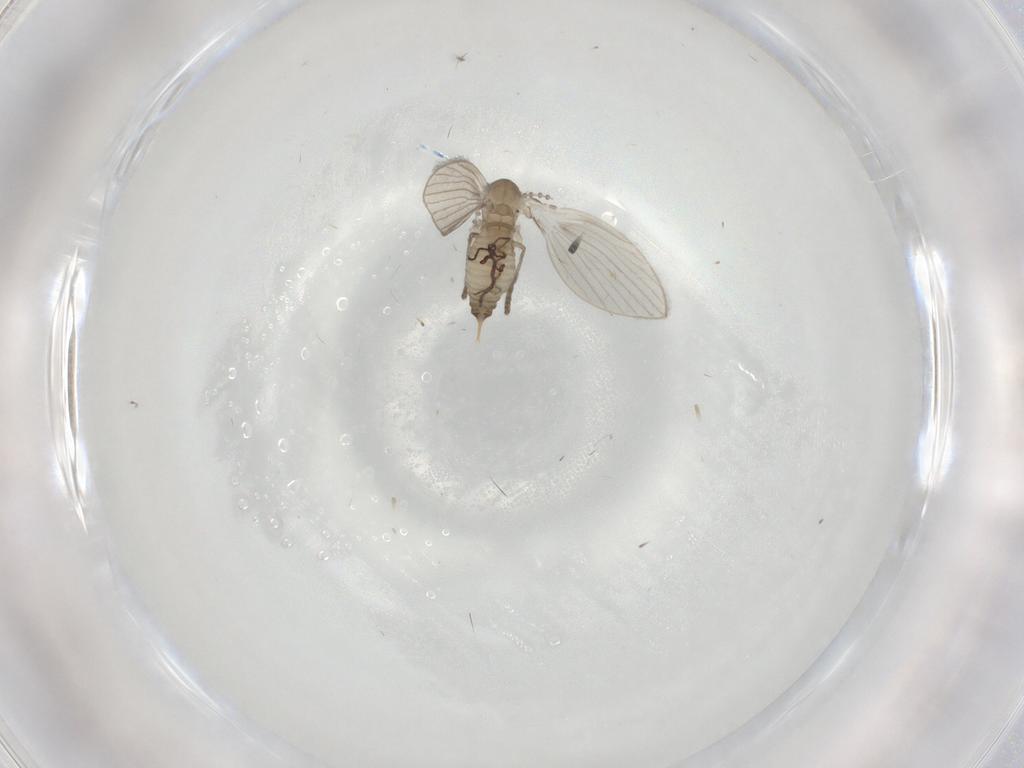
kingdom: Animalia
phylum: Arthropoda
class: Insecta
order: Diptera
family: Psychodidae
